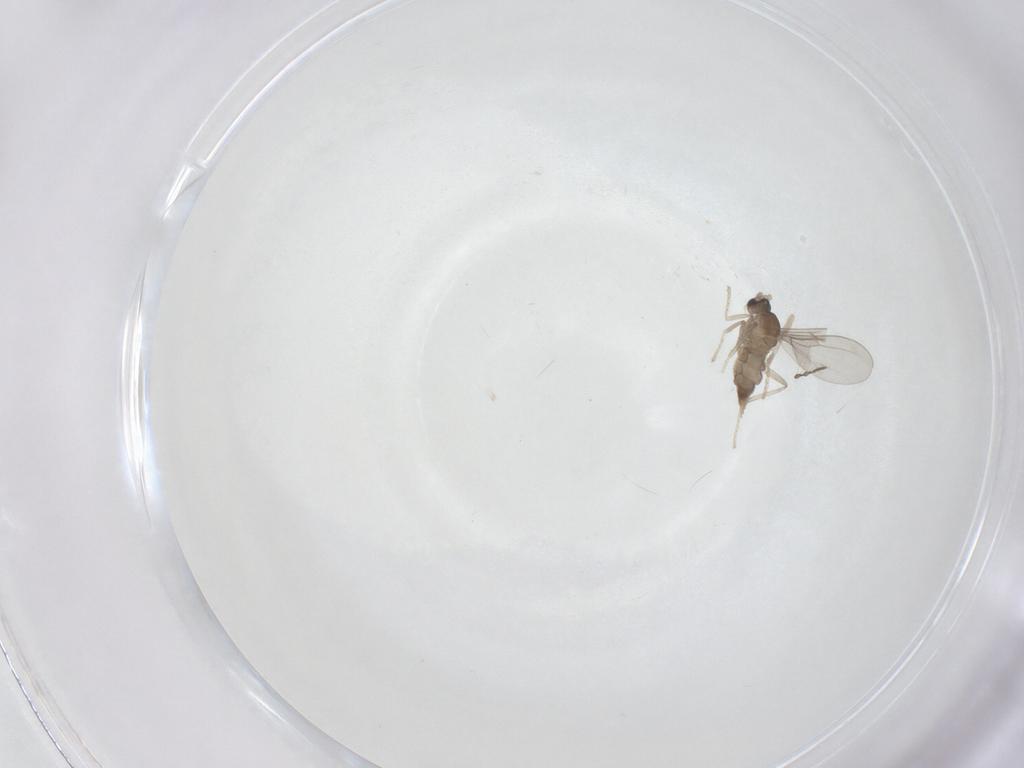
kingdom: Animalia
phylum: Arthropoda
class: Insecta
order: Diptera
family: Cecidomyiidae
